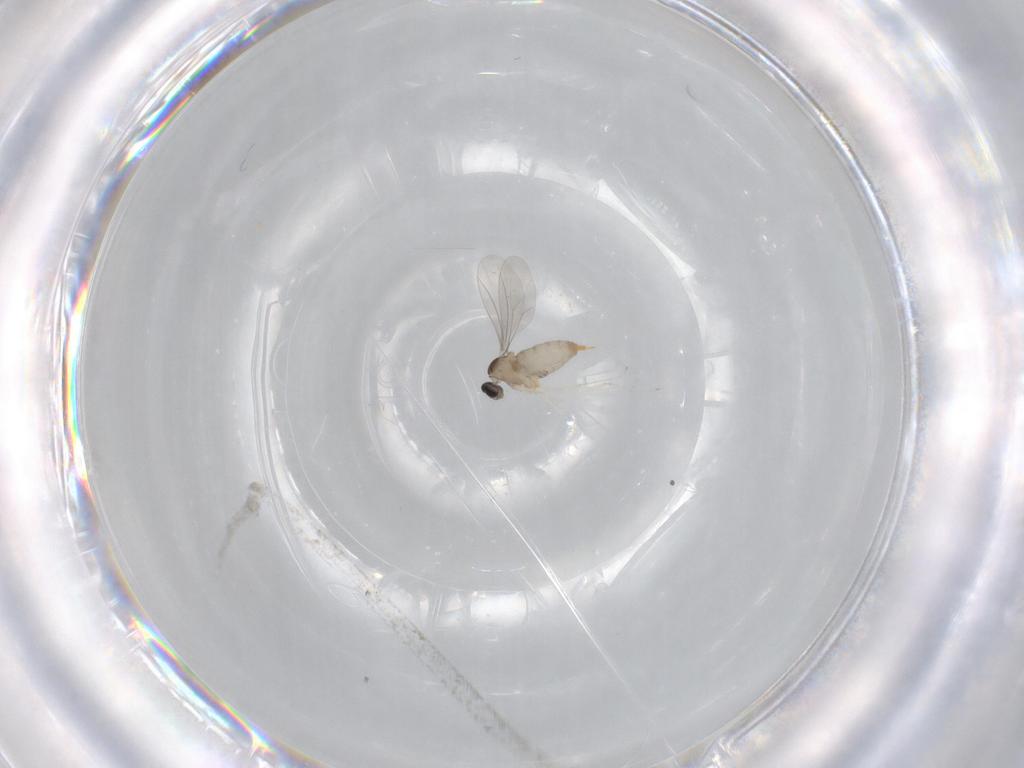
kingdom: Animalia
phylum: Arthropoda
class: Insecta
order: Diptera
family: Cecidomyiidae
